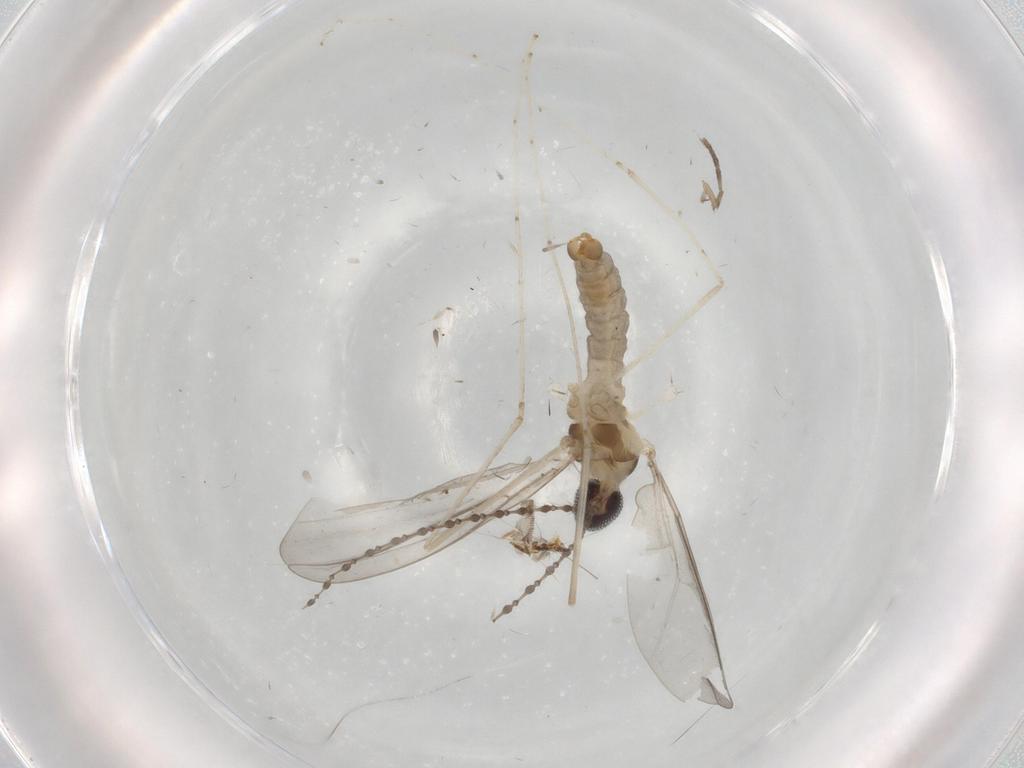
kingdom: Animalia
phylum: Arthropoda
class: Insecta
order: Diptera
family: Cecidomyiidae
